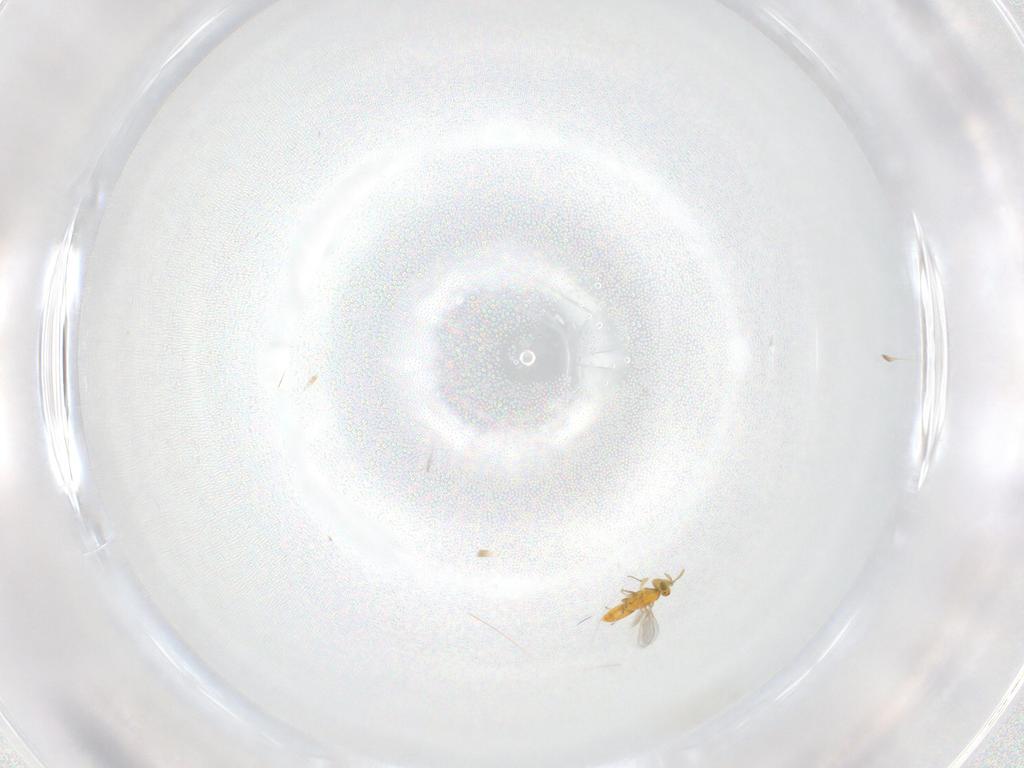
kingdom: Animalia
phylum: Arthropoda
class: Insecta
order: Hymenoptera
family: Aphelinidae
